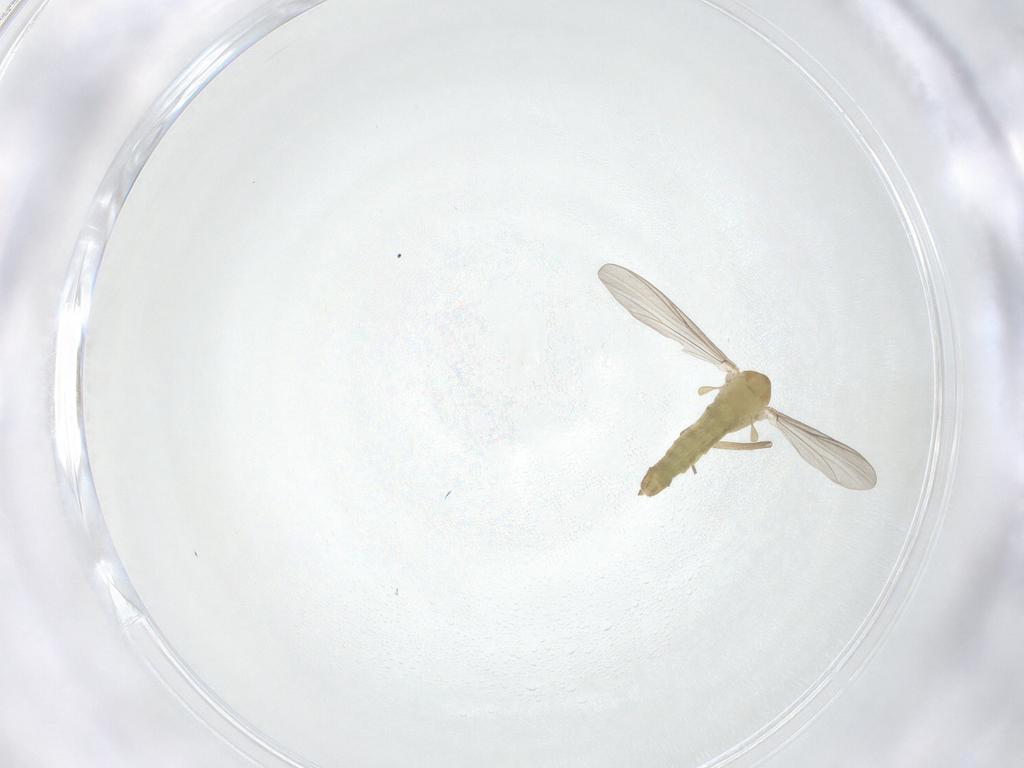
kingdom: Animalia
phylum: Arthropoda
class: Insecta
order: Diptera
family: Chironomidae
